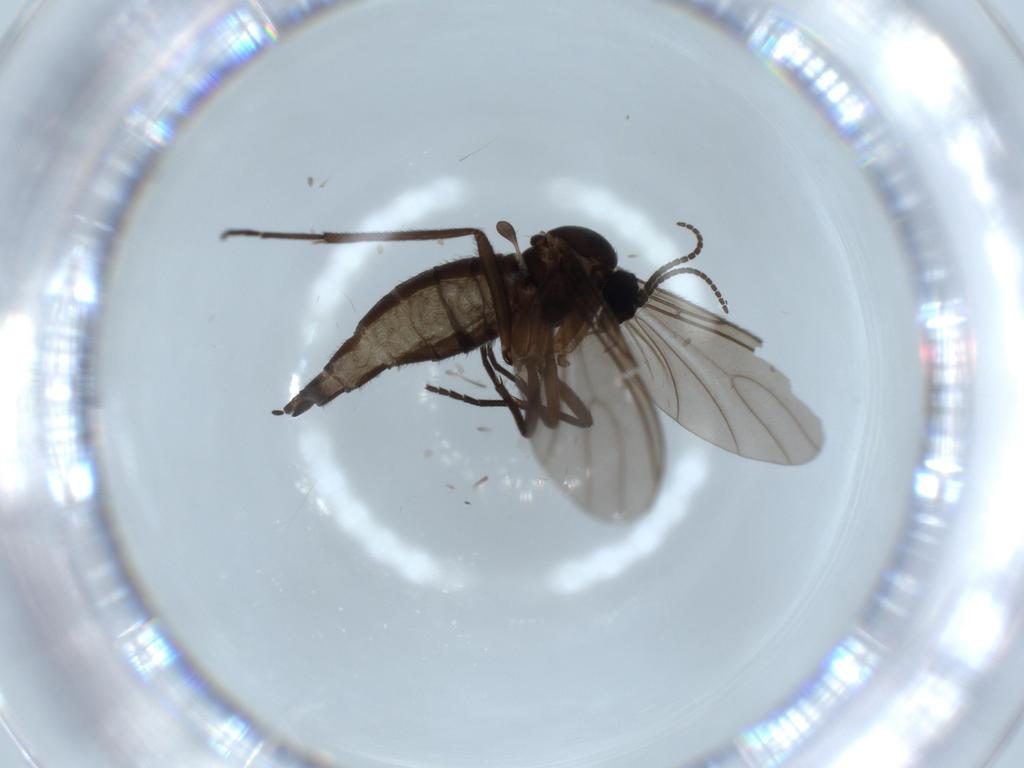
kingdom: Animalia
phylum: Arthropoda
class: Insecta
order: Diptera
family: Sciaridae
